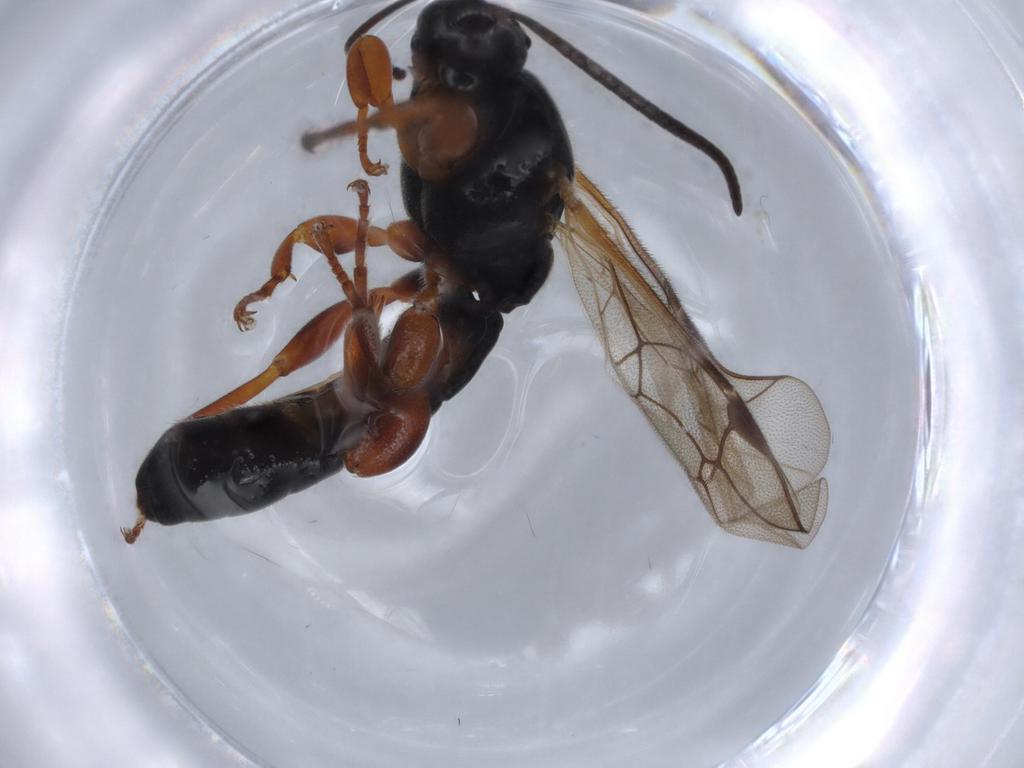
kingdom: Animalia
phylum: Arthropoda
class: Insecta
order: Hymenoptera
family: Ichneumonidae
